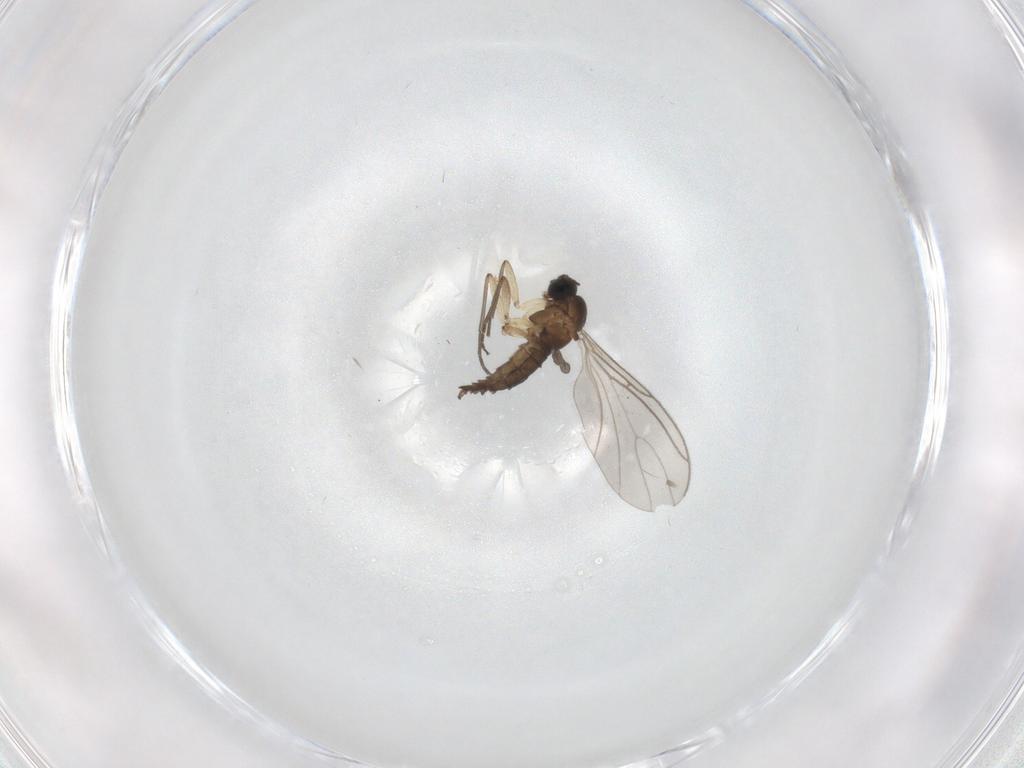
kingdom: Animalia
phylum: Arthropoda
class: Insecta
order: Diptera
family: Sciaridae
